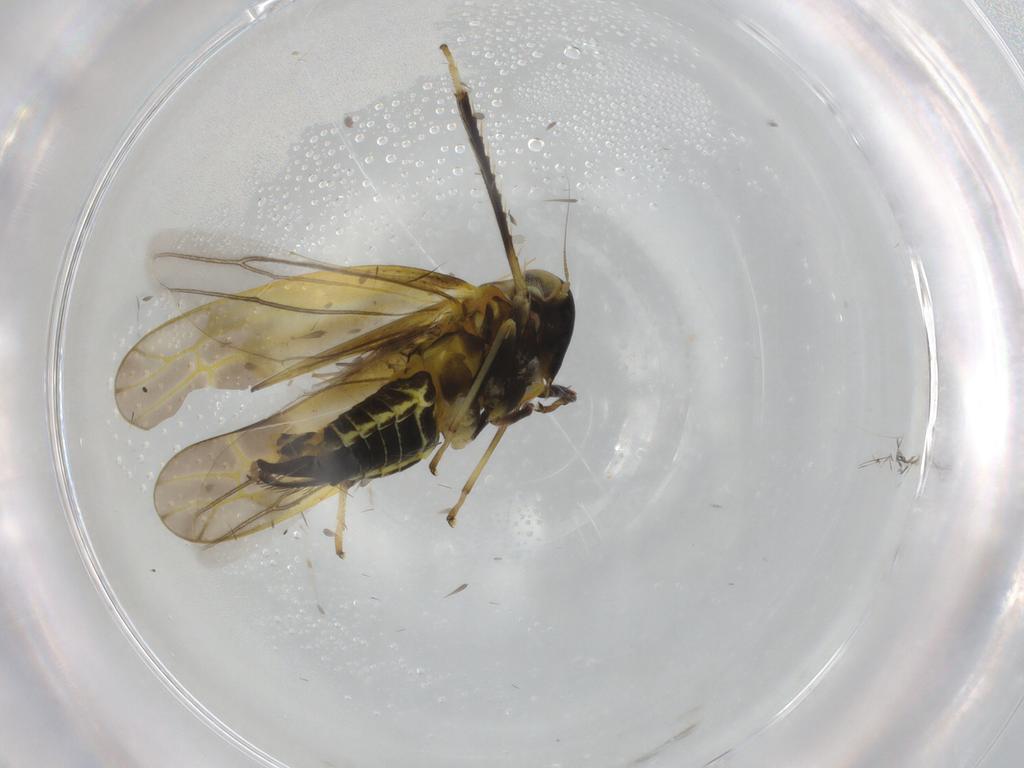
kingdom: Animalia
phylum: Arthropoda
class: Insecta
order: Hemiptera
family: Cicadellidae
